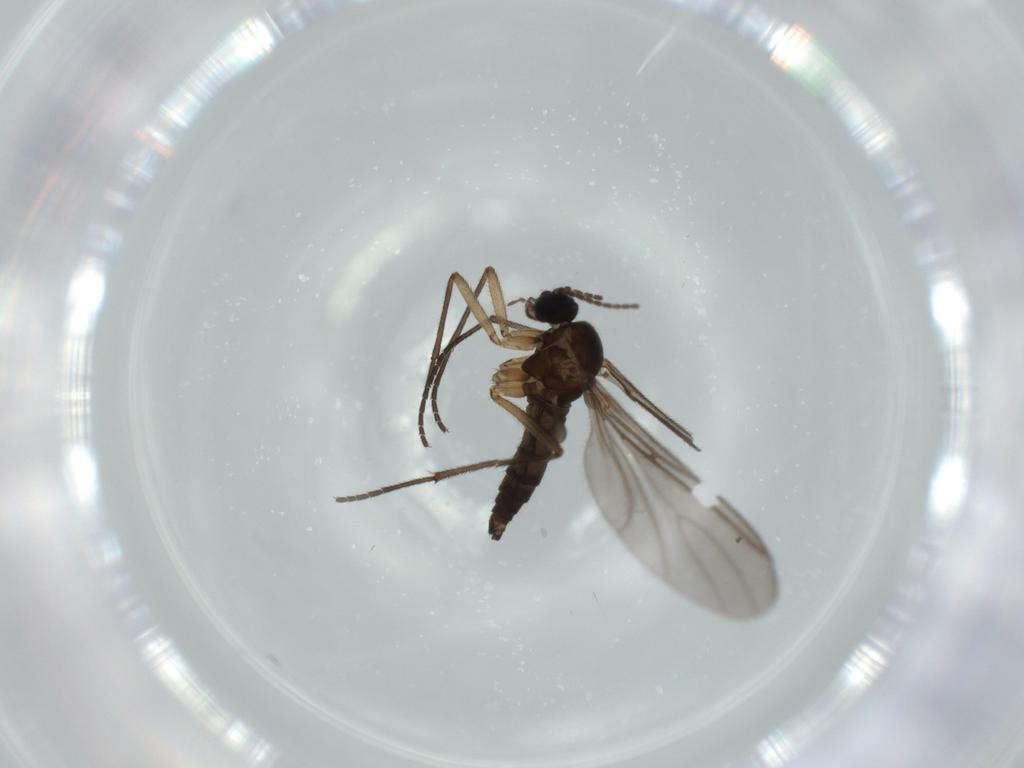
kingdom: Animalia
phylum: Arthropoda
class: Insecta
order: Diptera
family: Sciaridae
